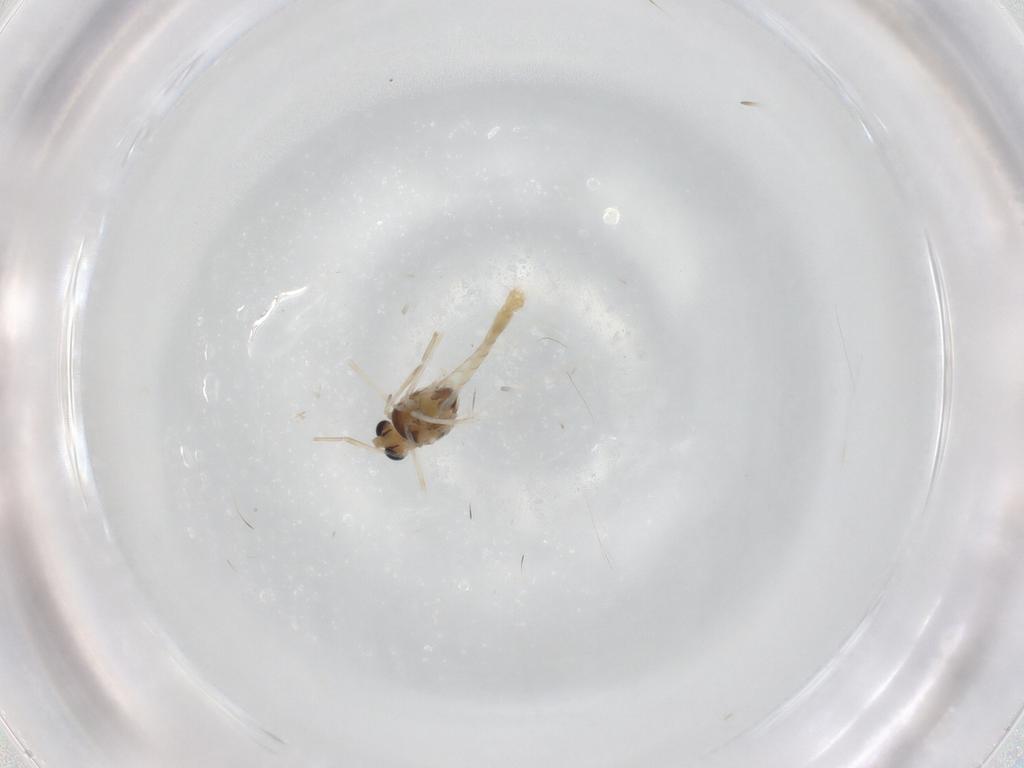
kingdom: Animalia
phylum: Arthropoda
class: Insecta
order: Diptera
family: Chironomidae
